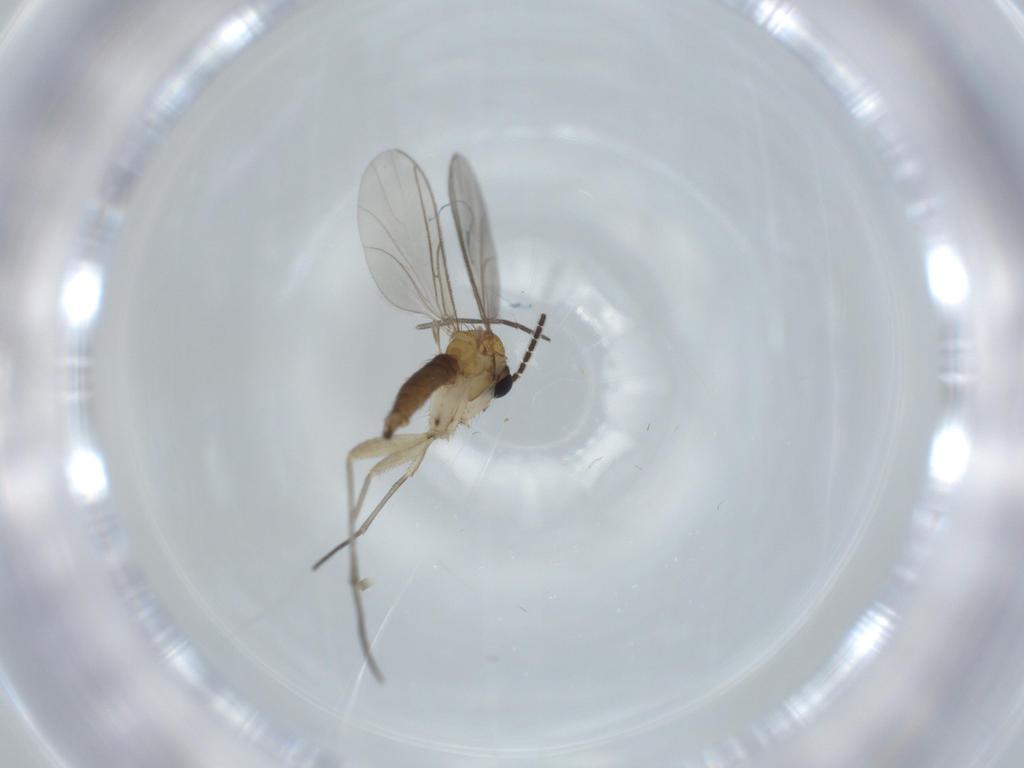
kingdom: Animalia
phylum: Arthropoda
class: Insecta
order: Diptera
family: Sciaridae
